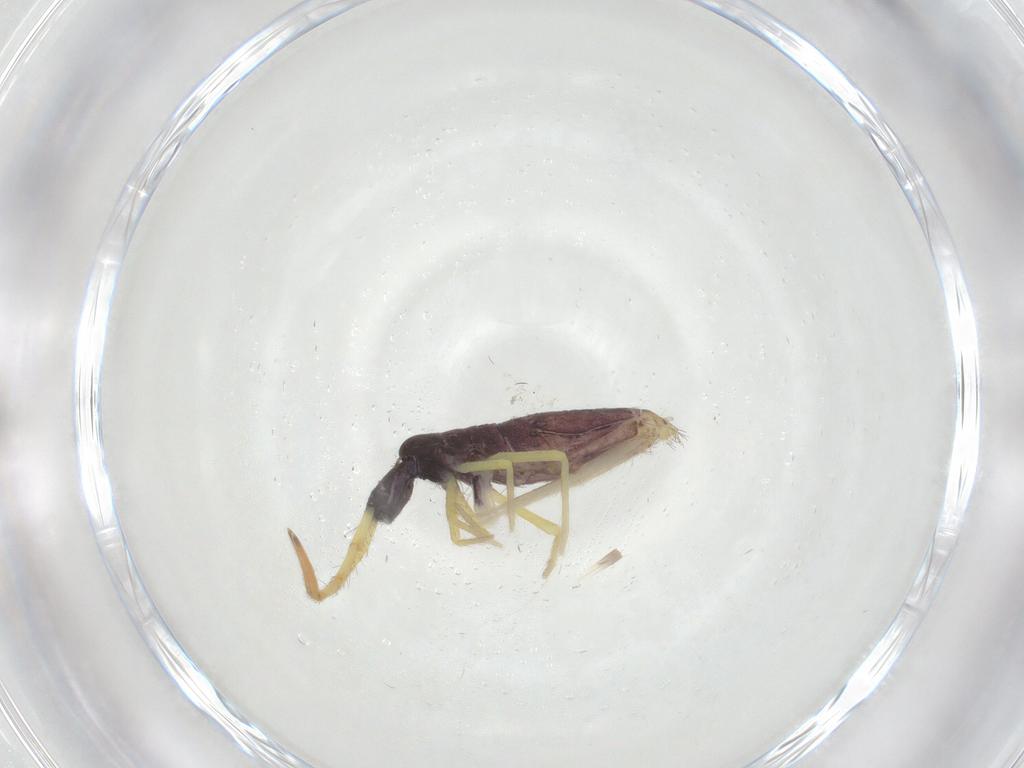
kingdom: Animalia
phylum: Arthropoda
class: Collembola
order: Entomobryomorpha
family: Entomobryidae
